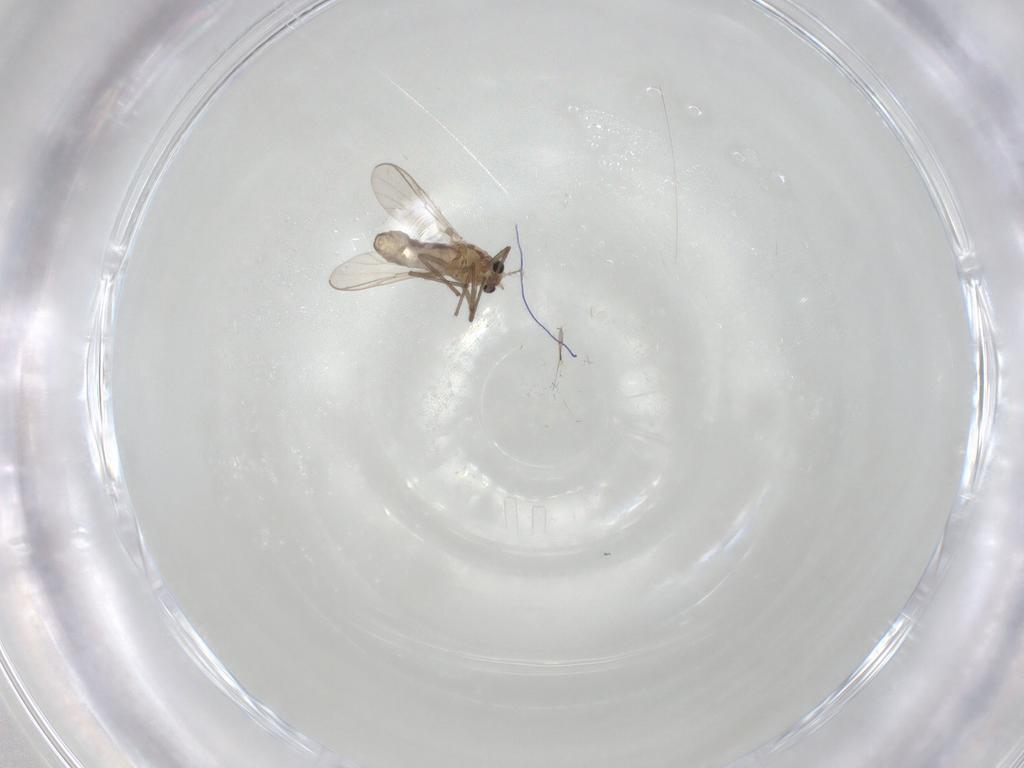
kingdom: Animalia
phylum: Arthropoda
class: Insecta
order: Diptera
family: Chironomidae
